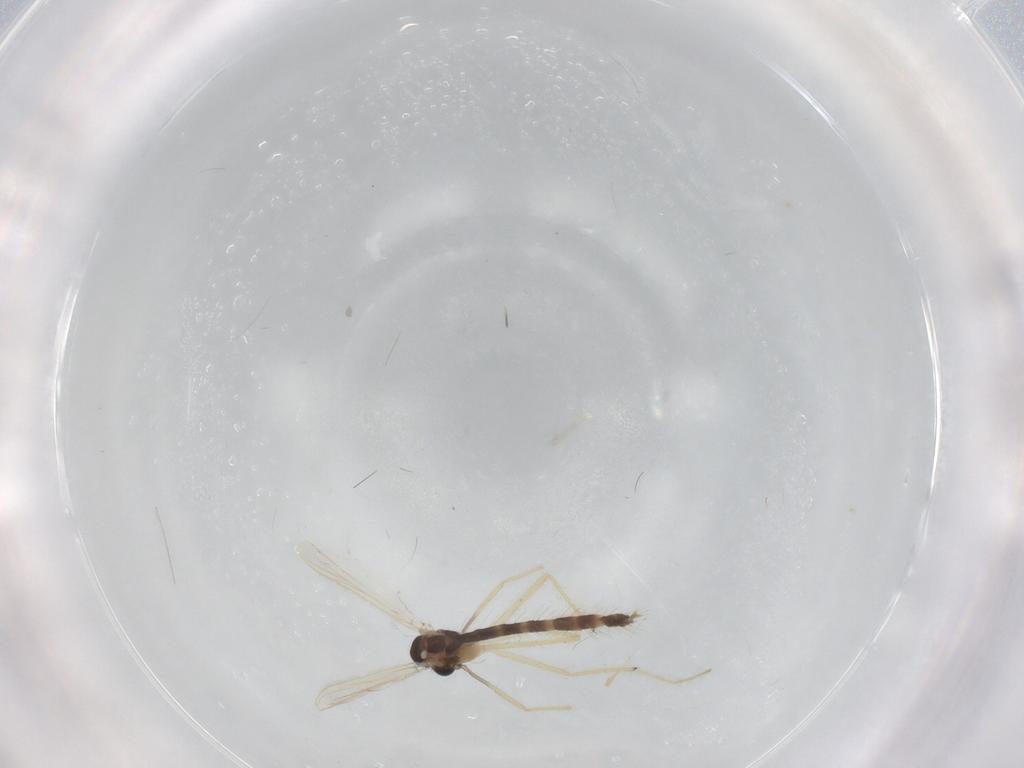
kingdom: Animalia
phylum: Arthropoda
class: Insecta
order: Diptera
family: Chironomidae
